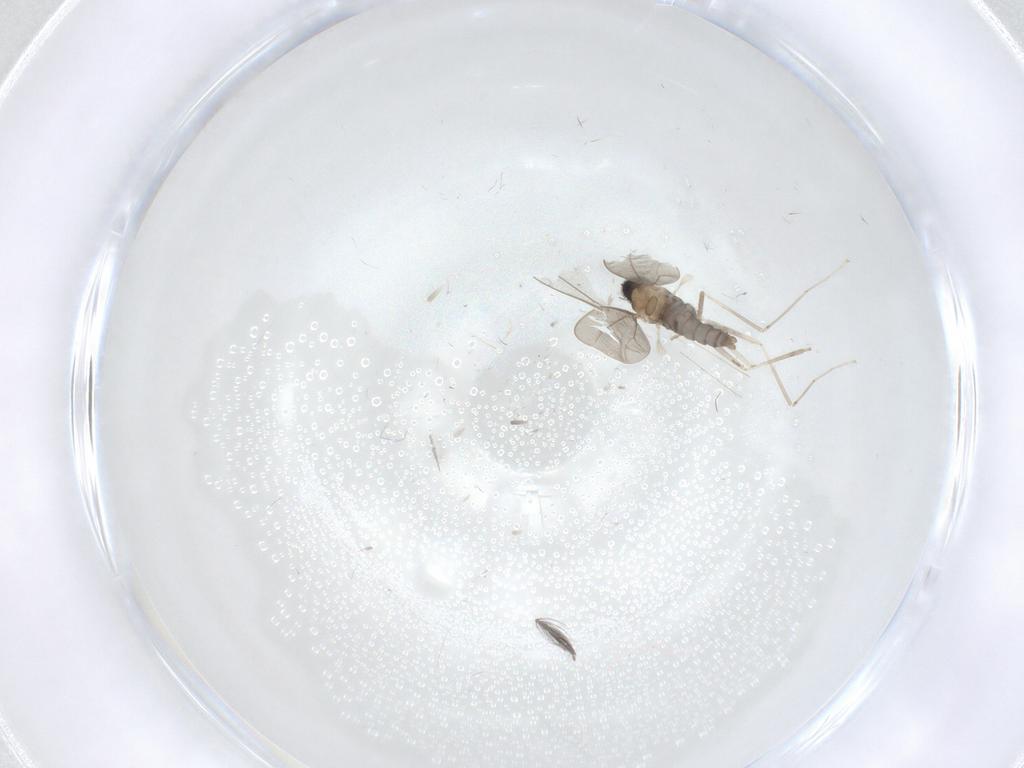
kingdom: Animalia
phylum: Arthropoda
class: Insecta
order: Diptera
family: Cecidomyiidae
